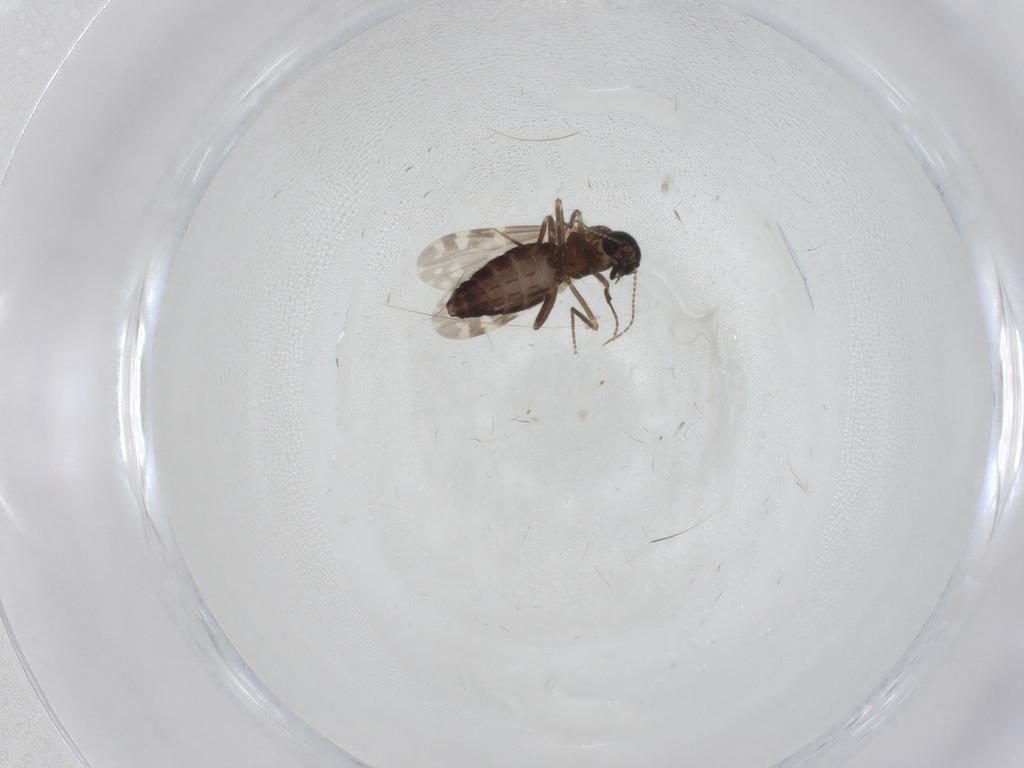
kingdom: Animalia
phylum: Arthropoda
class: Insecta
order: Diptera
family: Ceratopogonidae
